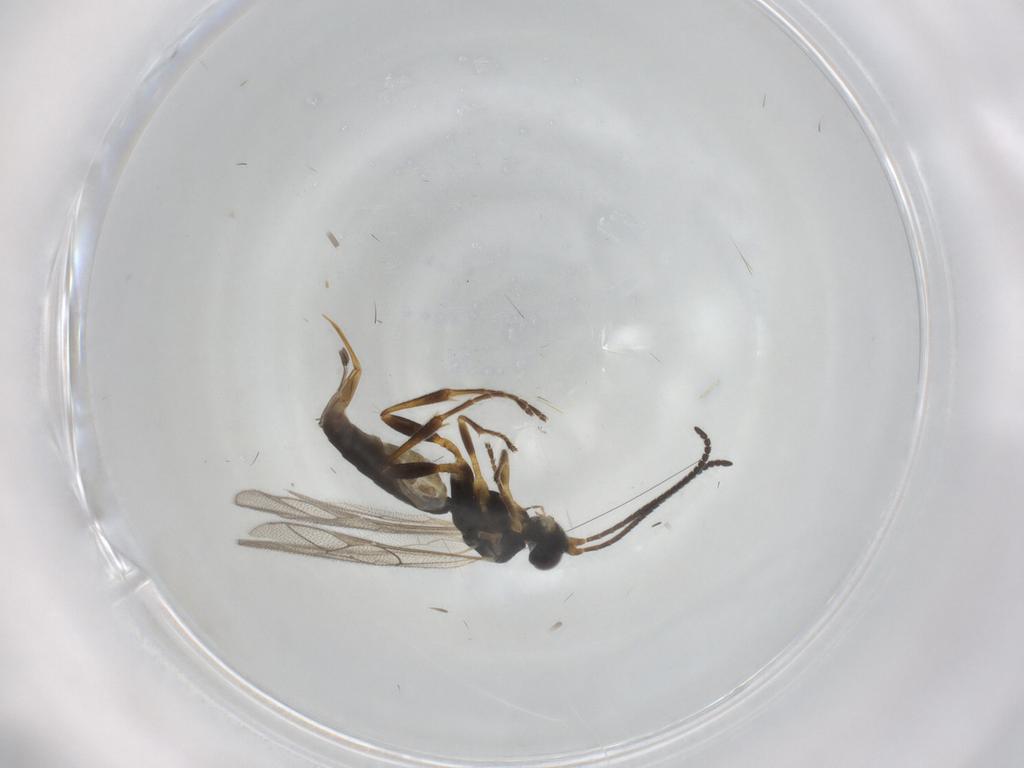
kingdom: Animalia
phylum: Arthropoda
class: Insecta
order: Hymenoptera
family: Ichneumonidae
